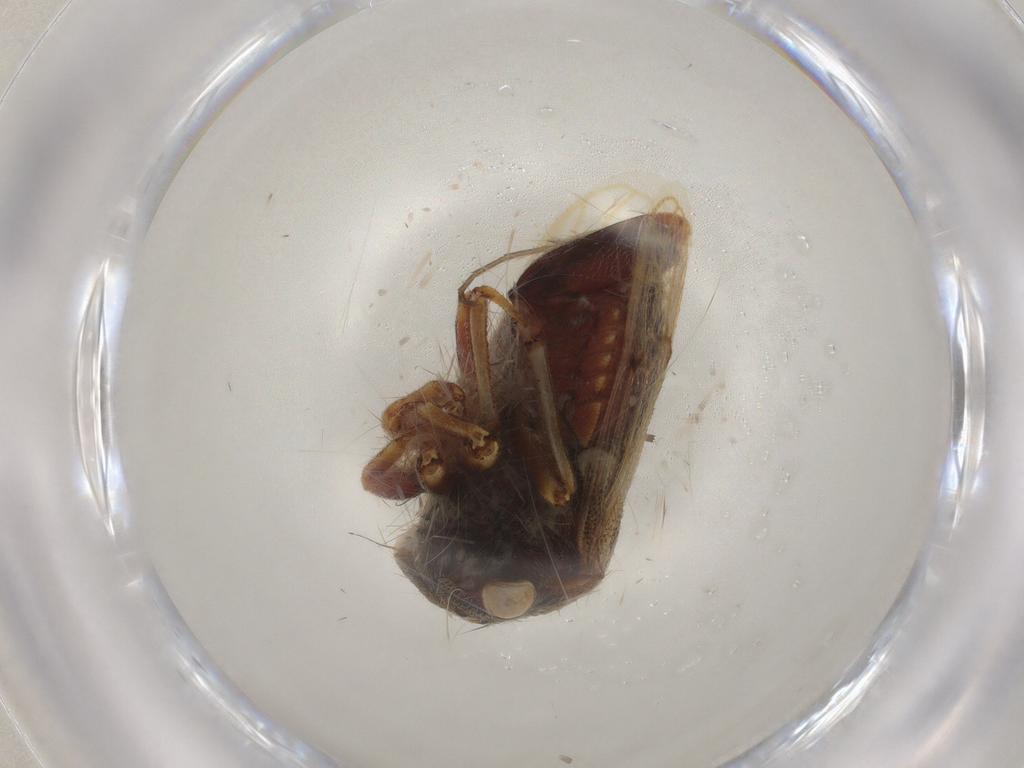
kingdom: Animalia
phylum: Arthropoda
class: Insecta
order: Hemiptera
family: Membracidae
